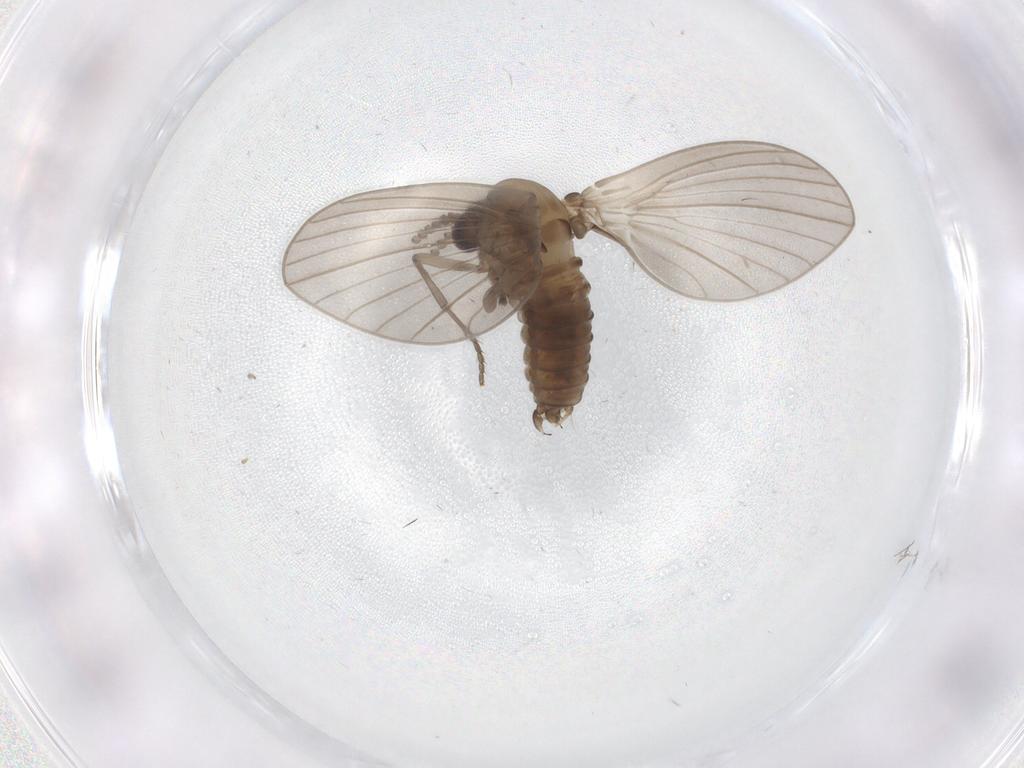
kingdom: Animalia
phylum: Arthropoda
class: Insecta
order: Diptera
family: Psychodidae
